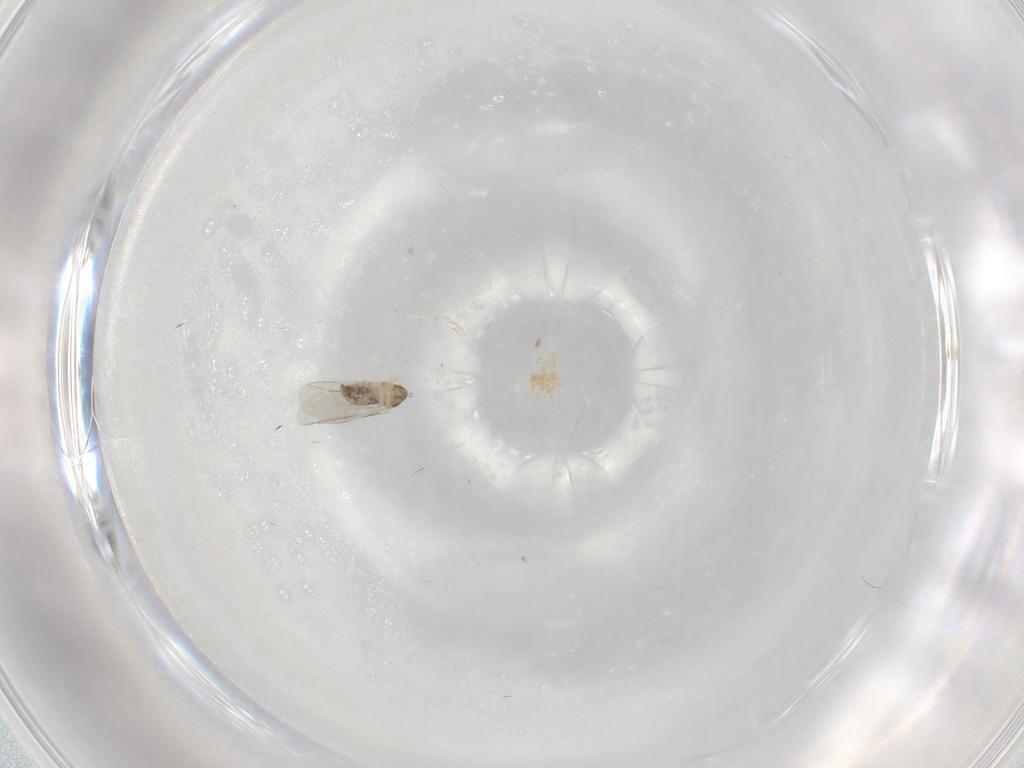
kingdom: Animalia
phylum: Arthropoda
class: Insecta
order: Diptera
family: Cecidomyiidae
